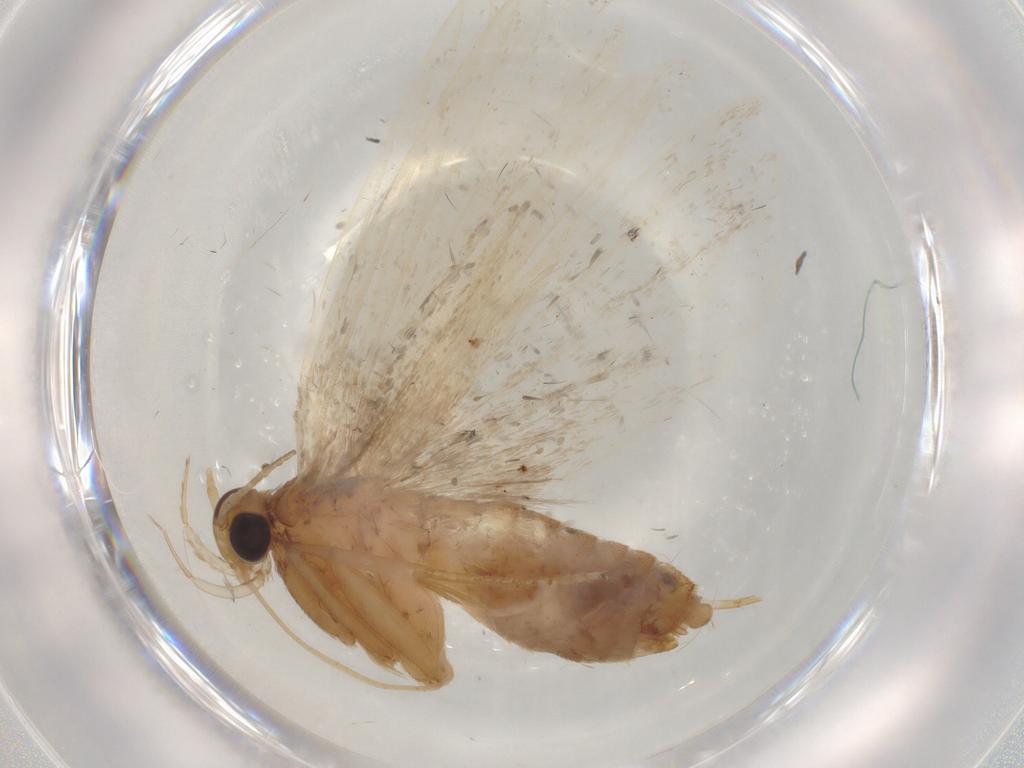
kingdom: Animalia
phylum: Arthropoda
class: Insecta
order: Lepidoptera
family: Lecithoceridae
